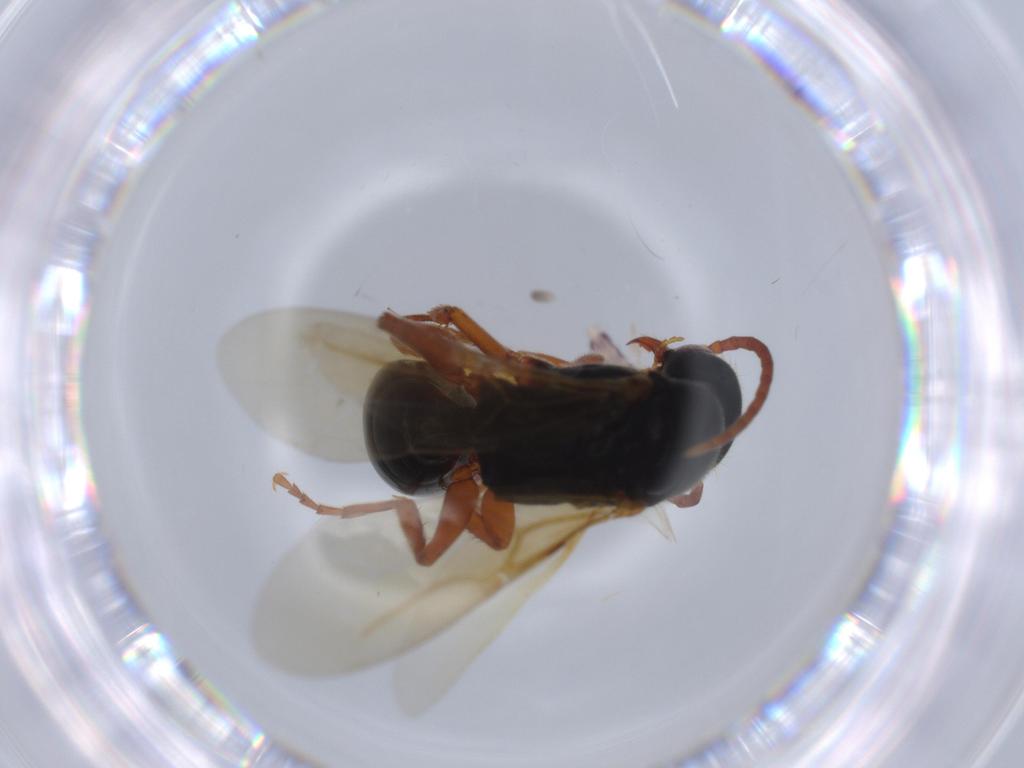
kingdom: Animalia
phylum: Arthropoda
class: Insecta
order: Hymenoptera
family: Bethylidae
